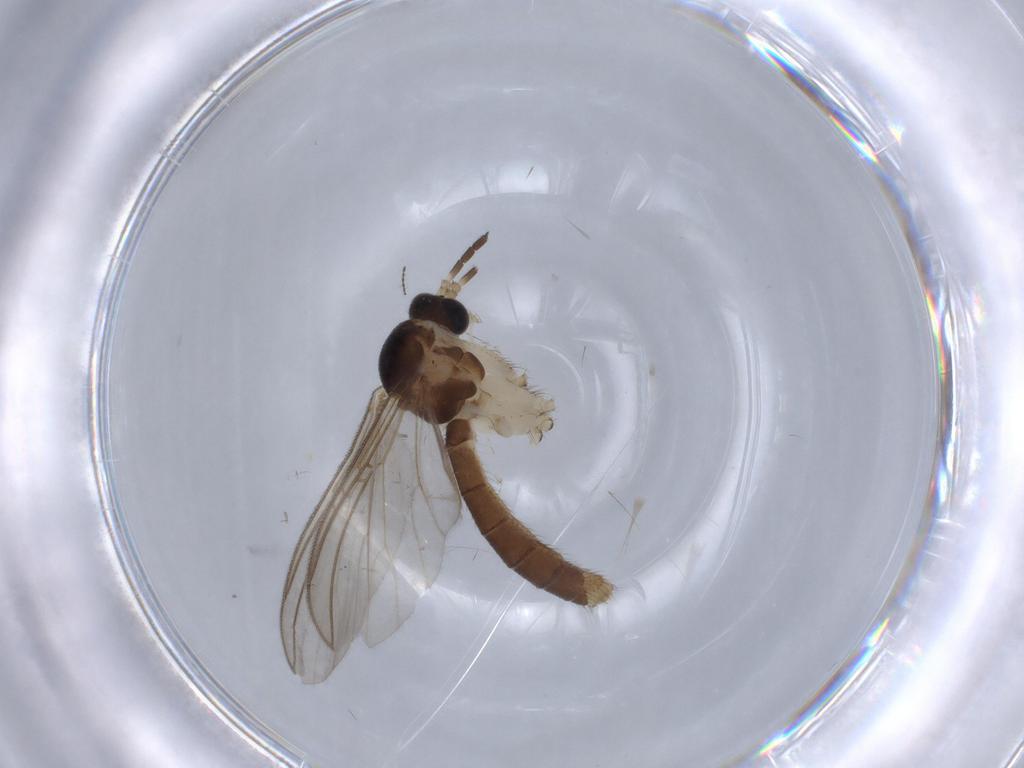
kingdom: Animalia
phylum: Arthropoda
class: Insecta
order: Diptera
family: Mycetophilidae
